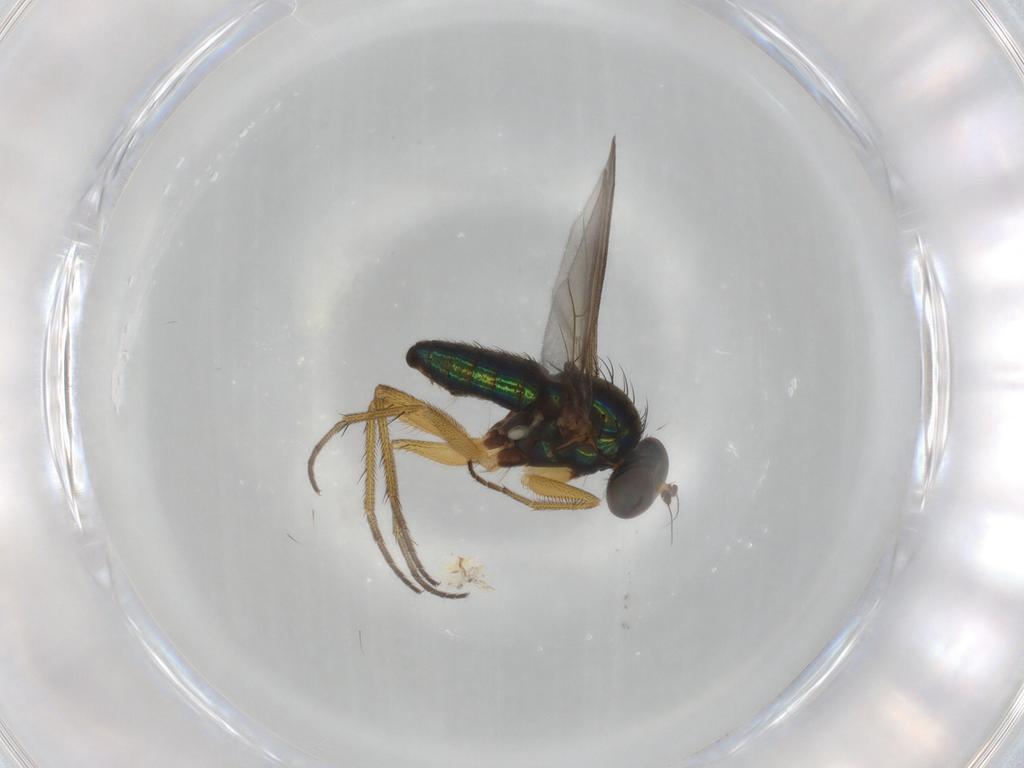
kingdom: Animalia
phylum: Arthropoda
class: Insecta
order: Diptera
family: Dolichopodidae
